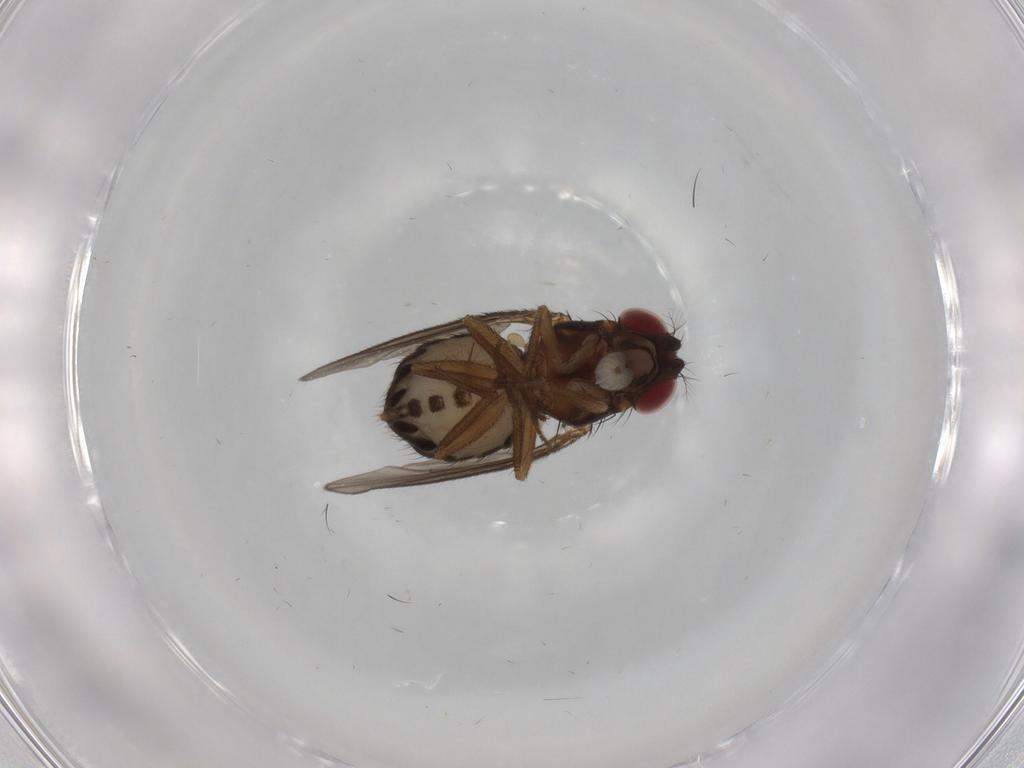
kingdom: Animalia
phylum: Arthropoda
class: Insecta
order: Diptera
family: Drosophilidae
